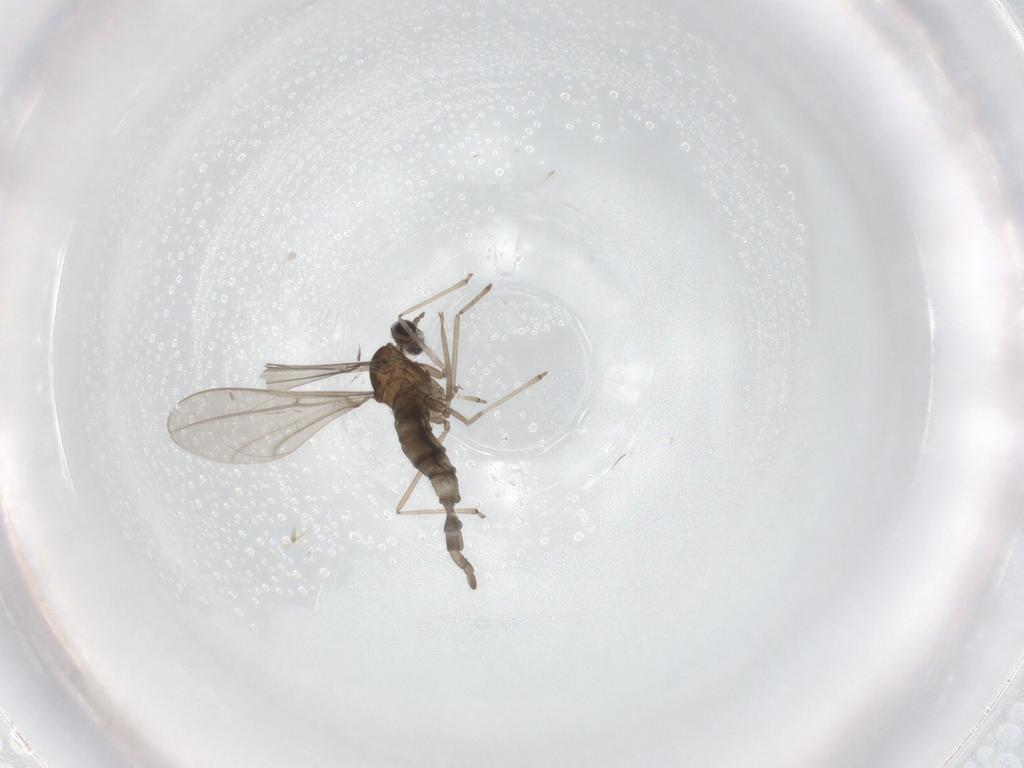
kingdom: Animalia
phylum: Arthropoda
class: Insecta
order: Diptera
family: Cecidomyiidae
